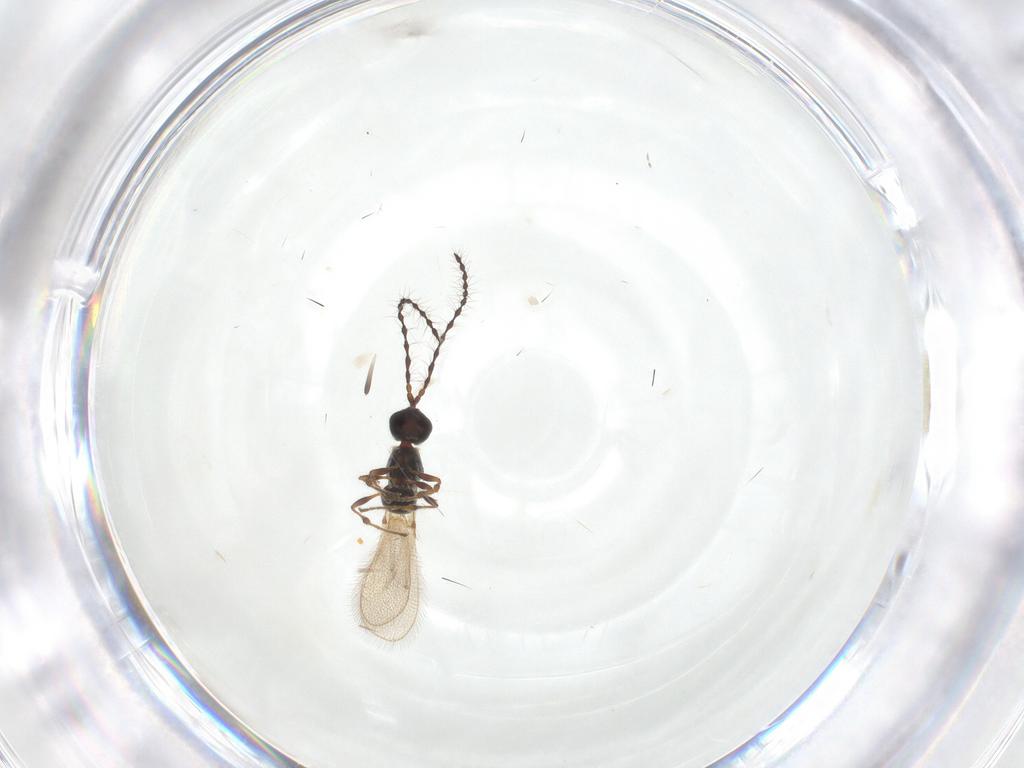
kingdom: Animalia
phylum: Arthropoda
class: Insecta
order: Hymenoptera
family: Diapriidae
